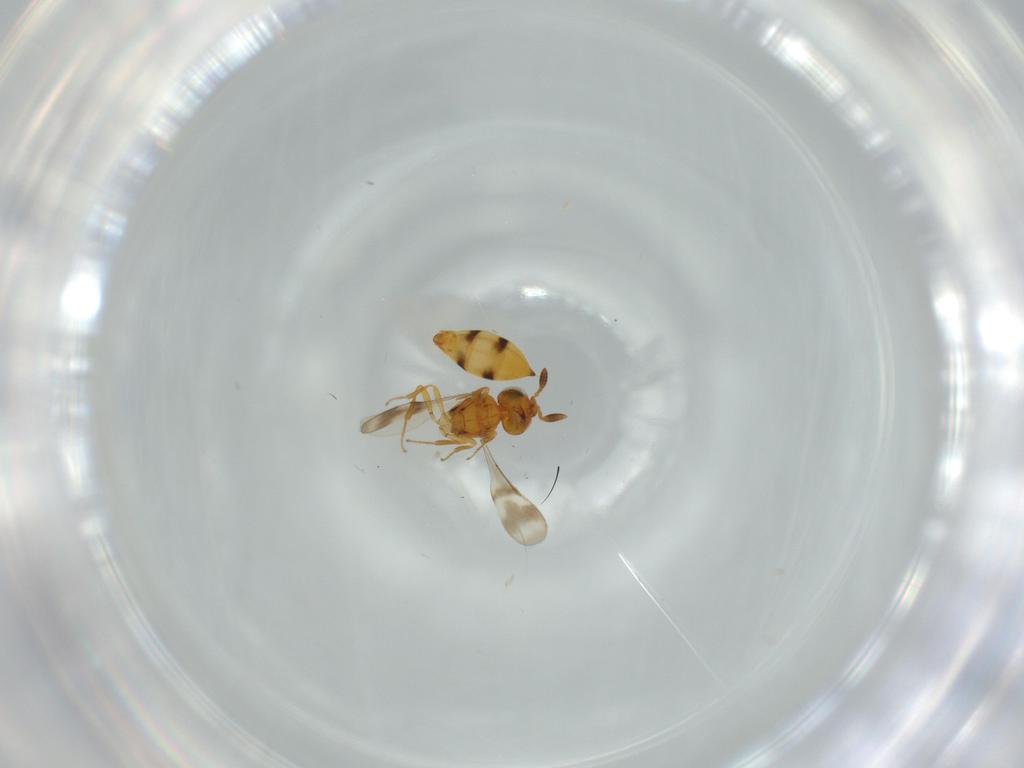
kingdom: Animalia
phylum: Arthropoda
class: Insecta
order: Hymenoptera
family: Scelionidae
